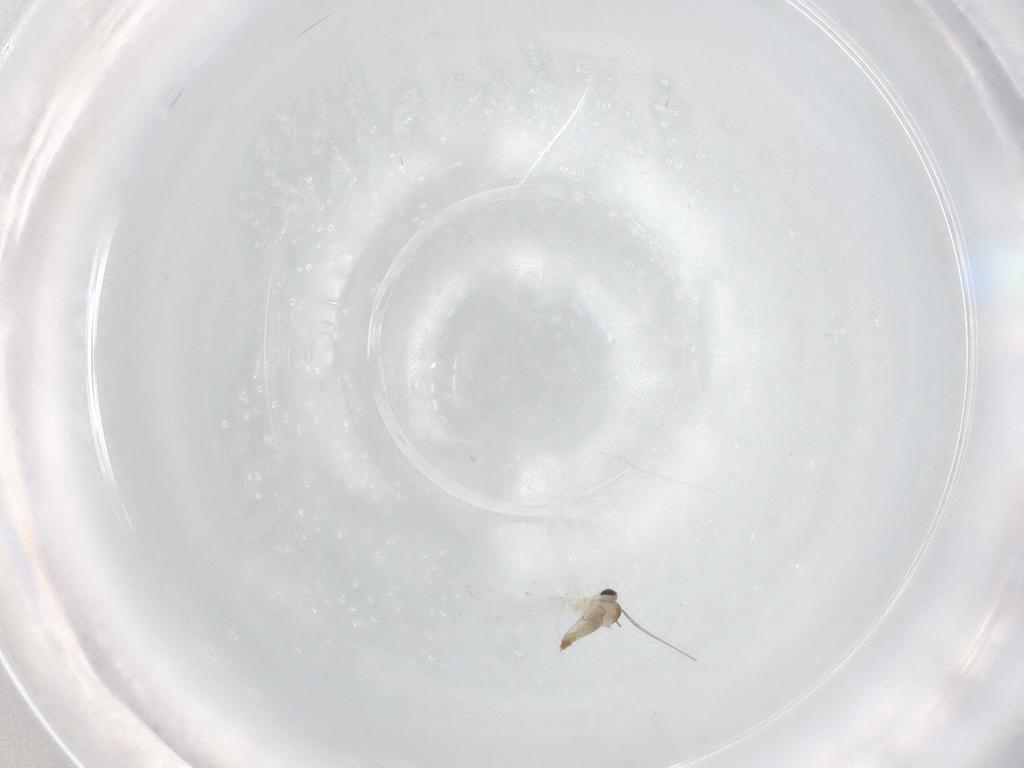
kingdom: Animalia
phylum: Arthropoda
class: Insecta
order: Diptera
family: Cecidomyiidae
